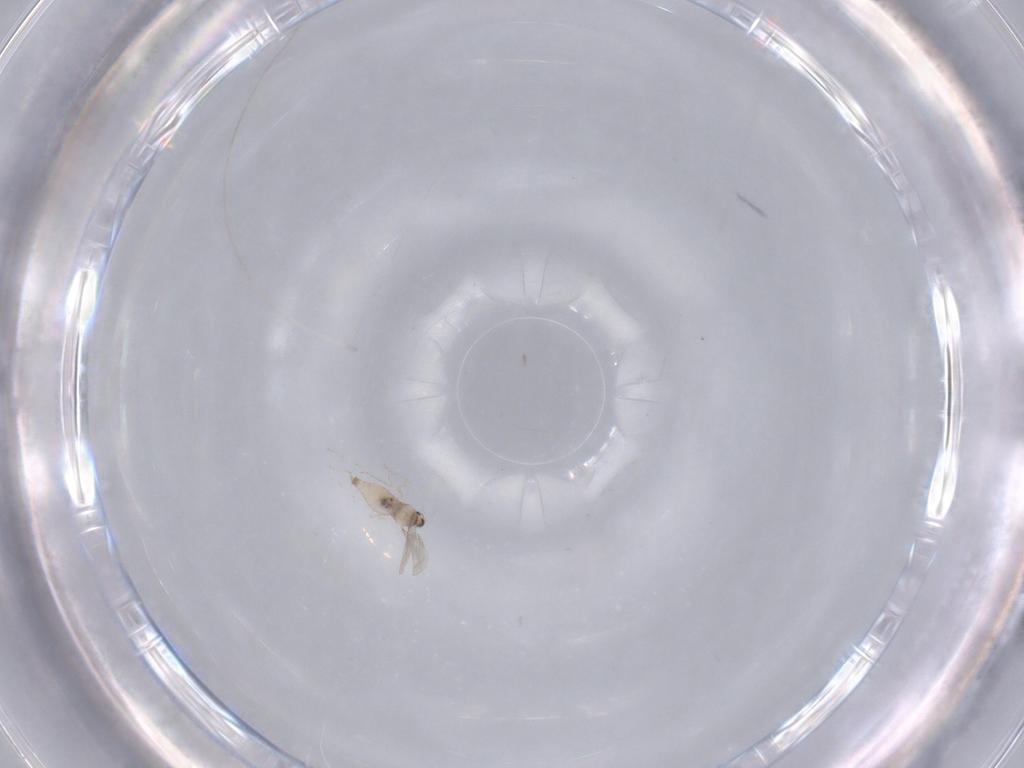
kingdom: Animalia
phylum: Arthropoda
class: Insecta
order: Diptera
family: Cecidomyiidae
